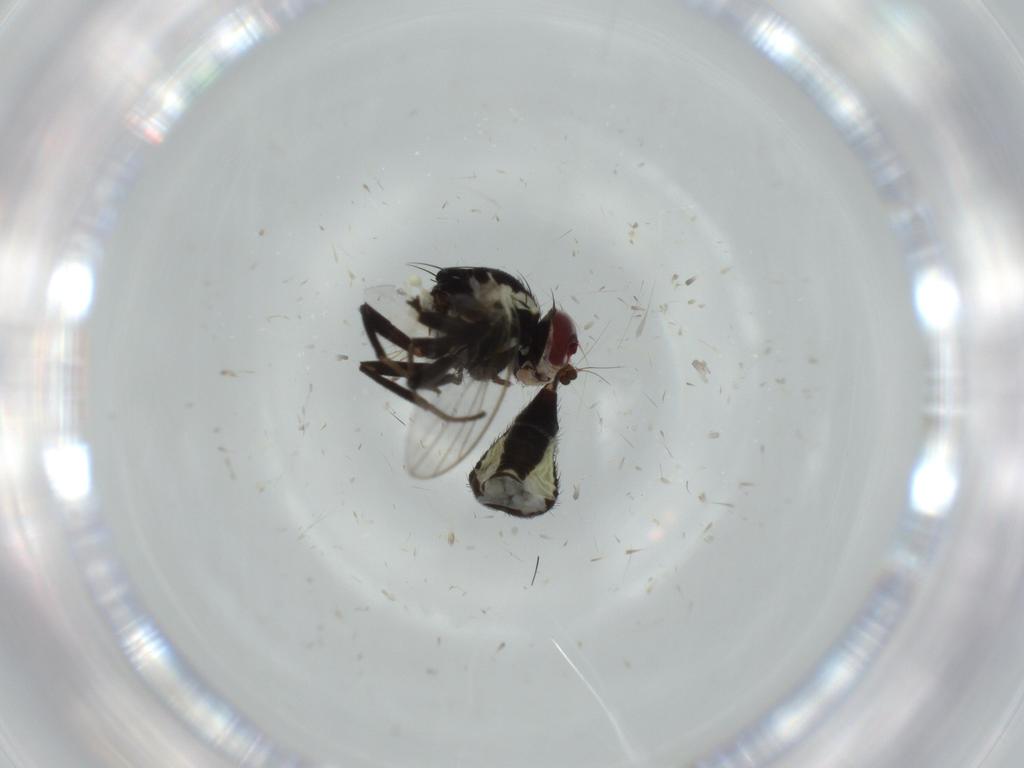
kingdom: Animalia
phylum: Arthropoda
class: Insecta
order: Diptera
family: Agromyzidae
